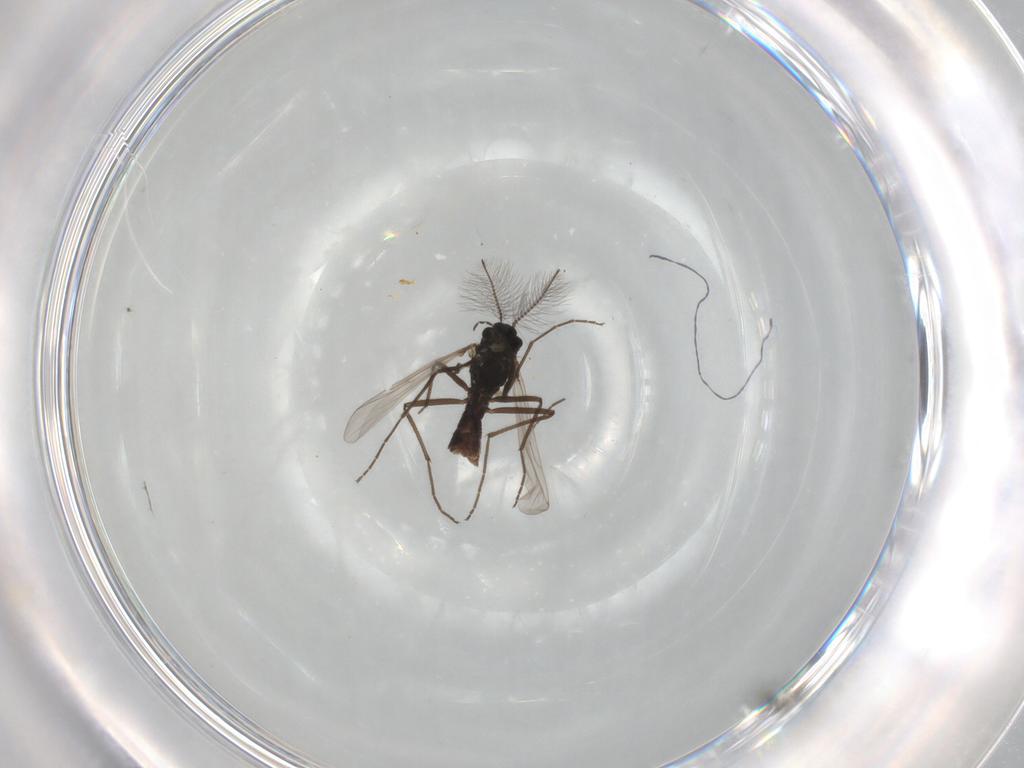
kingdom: Animalia
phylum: Arthropoda
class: Insecta
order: Diptera
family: Chironomidae
